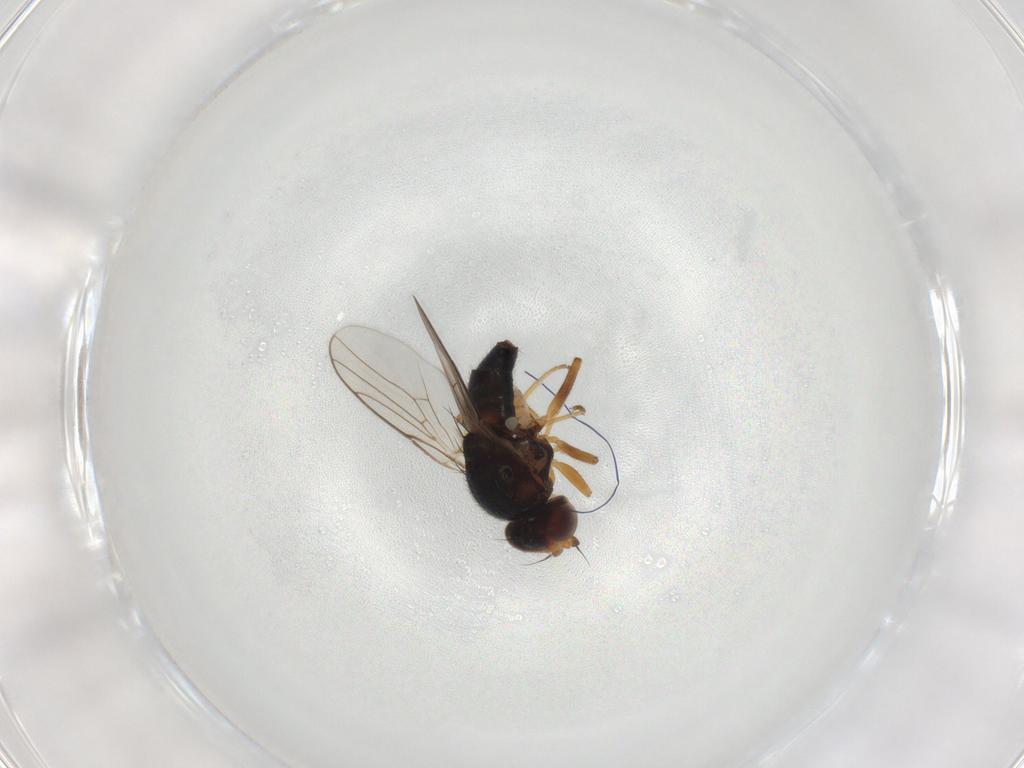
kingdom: Animalia
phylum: Arthropoda
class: Insecta
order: Diptera
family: Chloropidae
